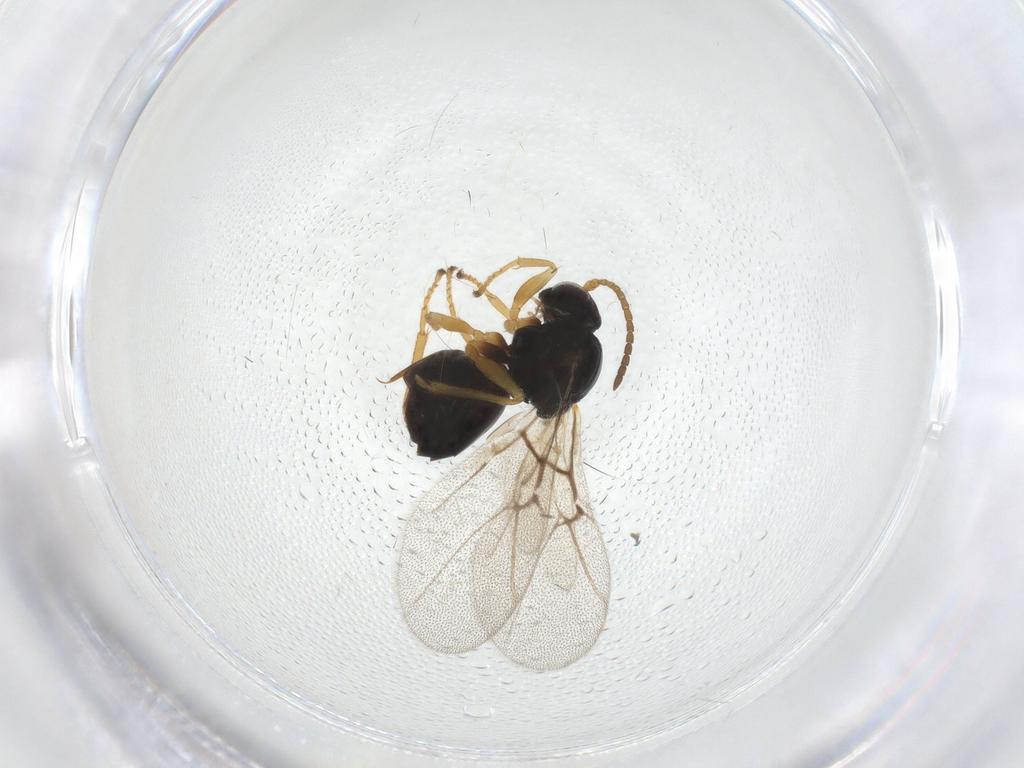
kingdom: Animalia
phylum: Arthropoda
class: Insecta
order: Hymenoptera
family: Cynipidae
